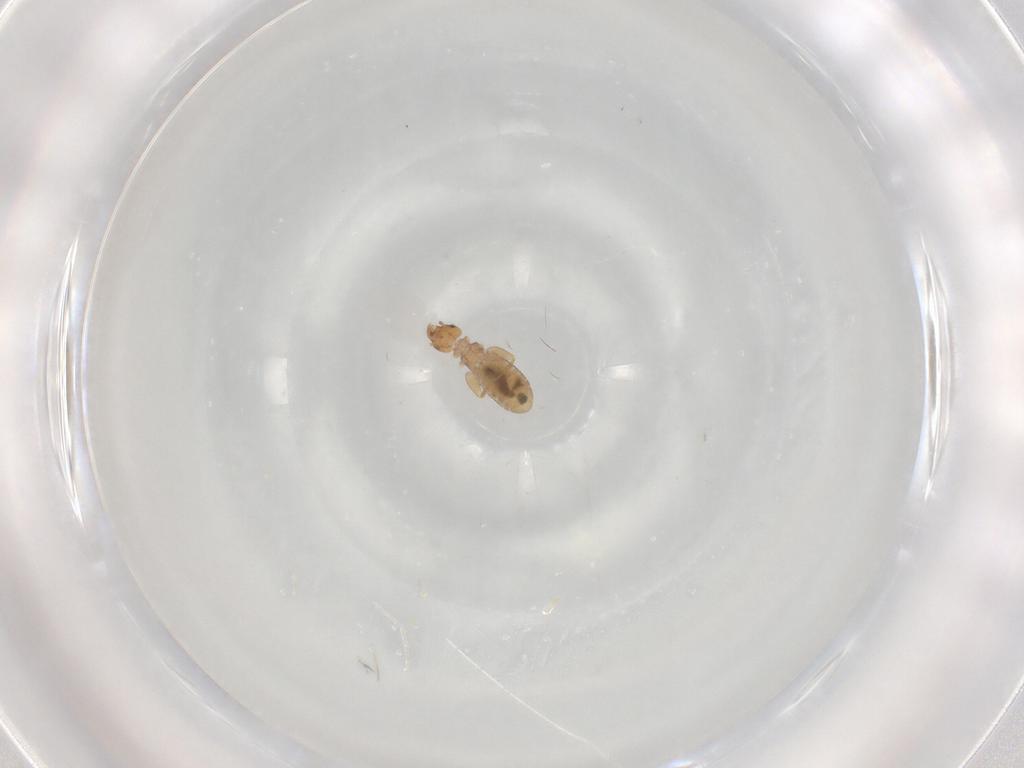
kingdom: Animalia
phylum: Arthropoda
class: Insecta
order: Psocodea
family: Liposcelididae
